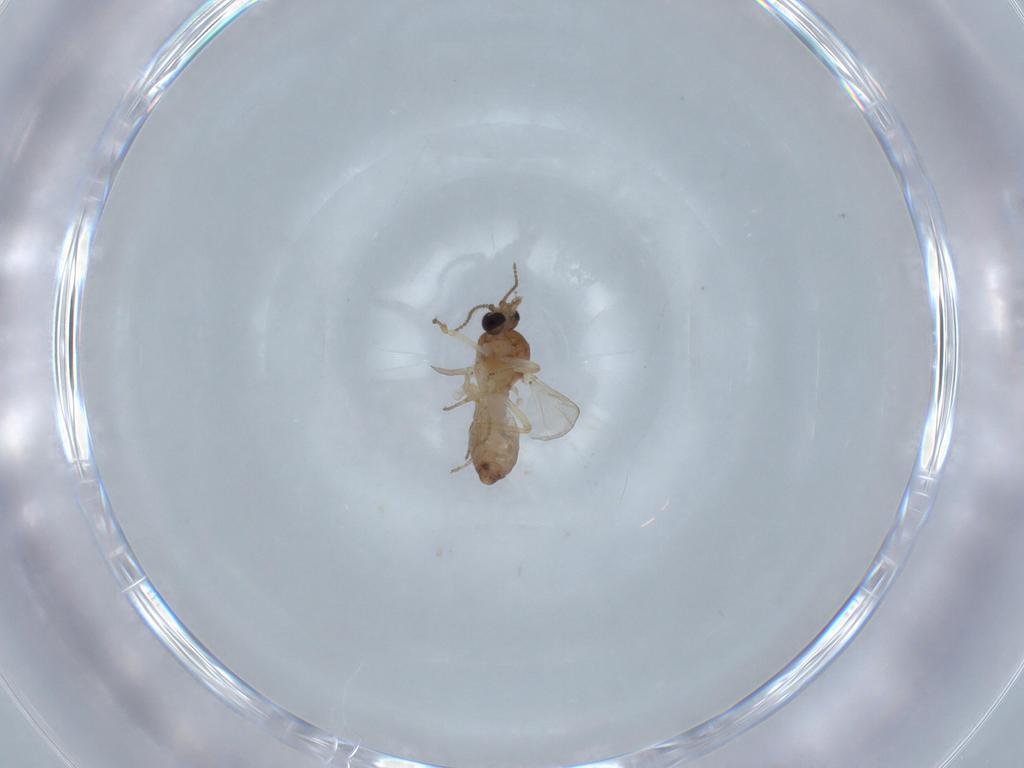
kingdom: Animalia
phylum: Arthropoda
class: Insecta
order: Diptera
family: Ceratopogonidae
